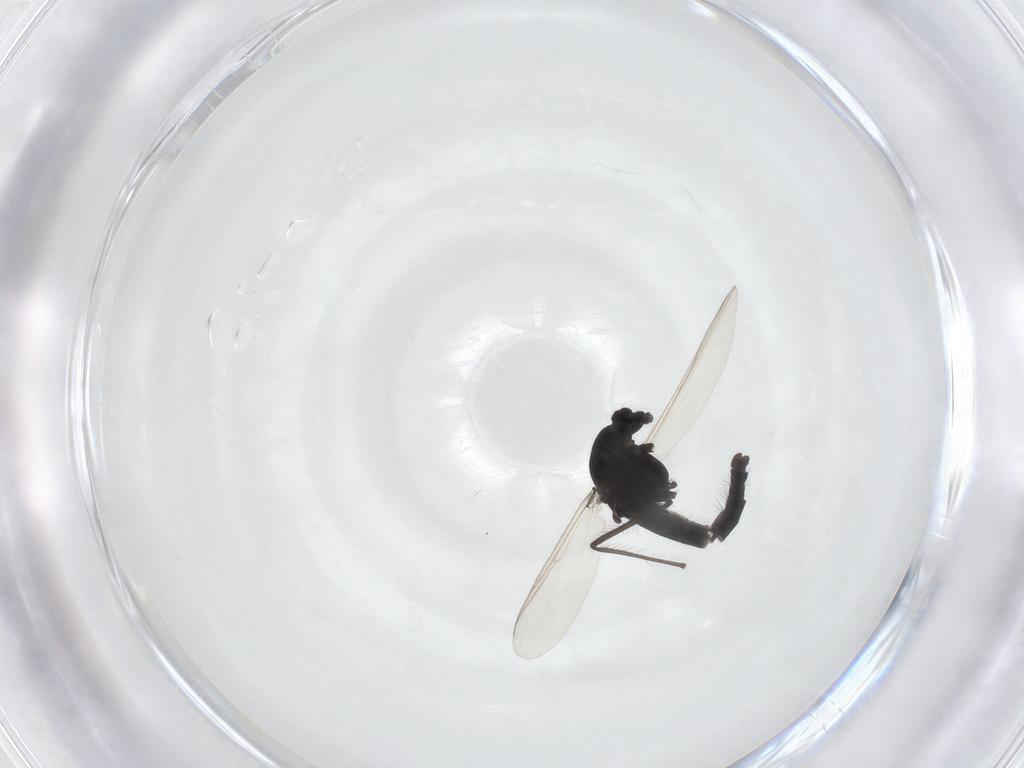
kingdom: Animalia
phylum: Arthropoda
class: Insecta
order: Diptera
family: Chironomidae
